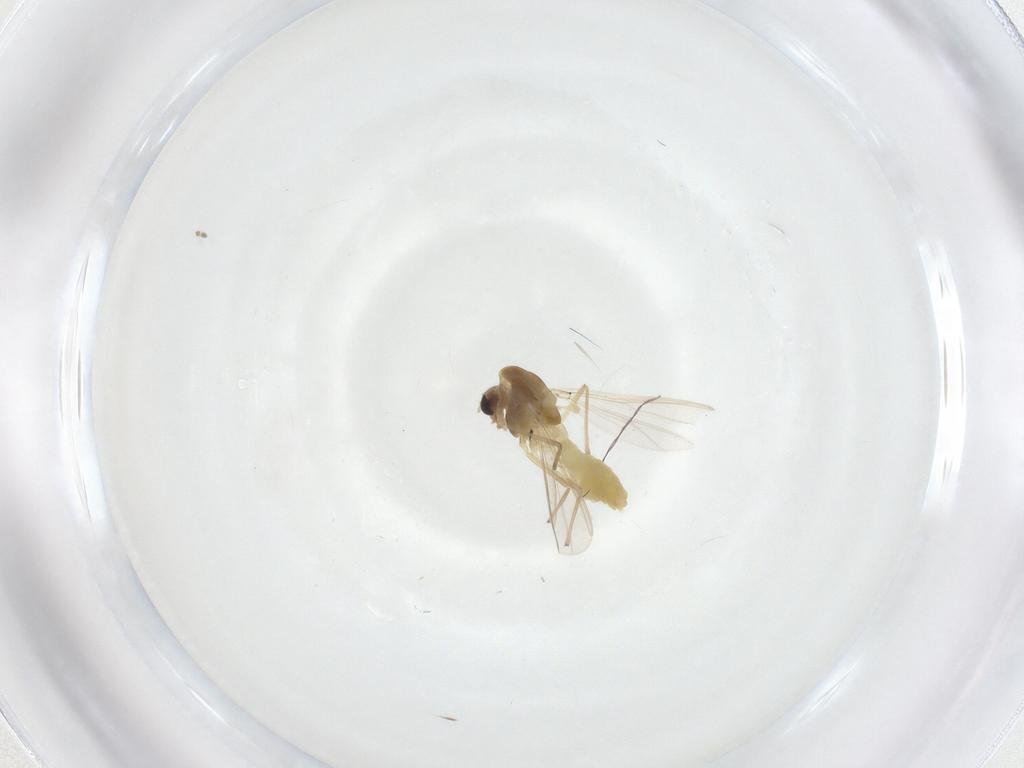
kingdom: Animalia
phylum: Arthropoda
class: Insecta
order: Diptera
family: Chironomidae
